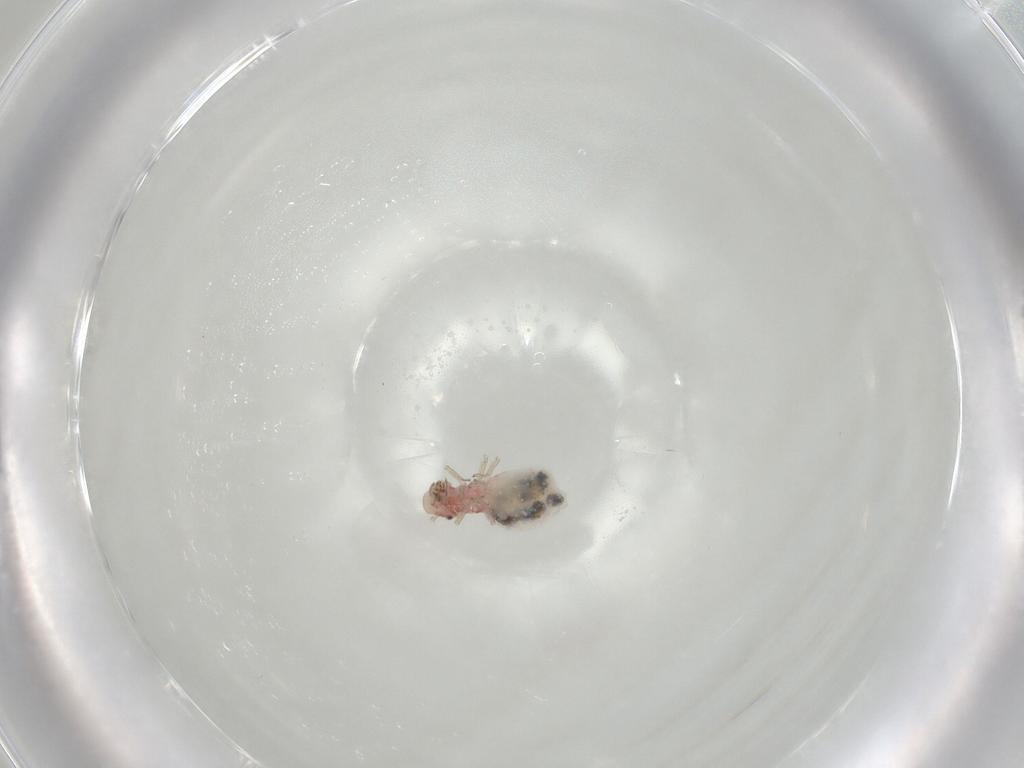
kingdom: Animalia
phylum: Arthropoda
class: Insecta
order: Psocodea
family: Caeciliusidae
